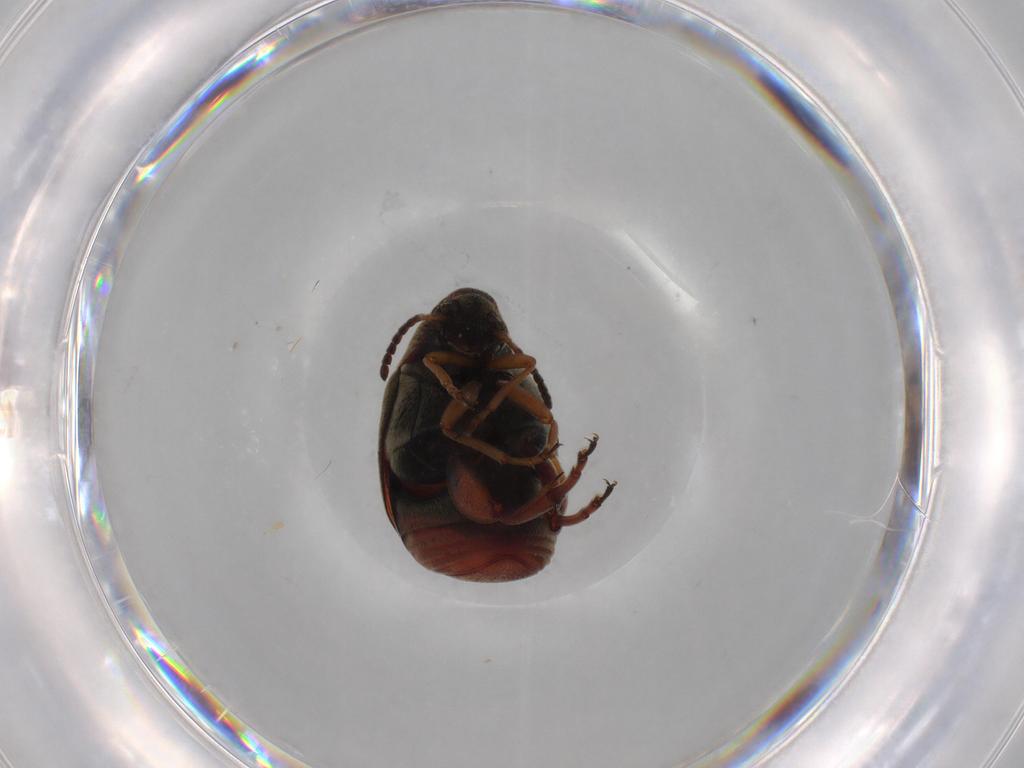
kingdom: Animalia
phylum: Arthropoda
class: Insecta
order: Coleoptera
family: Chrysomelidae
